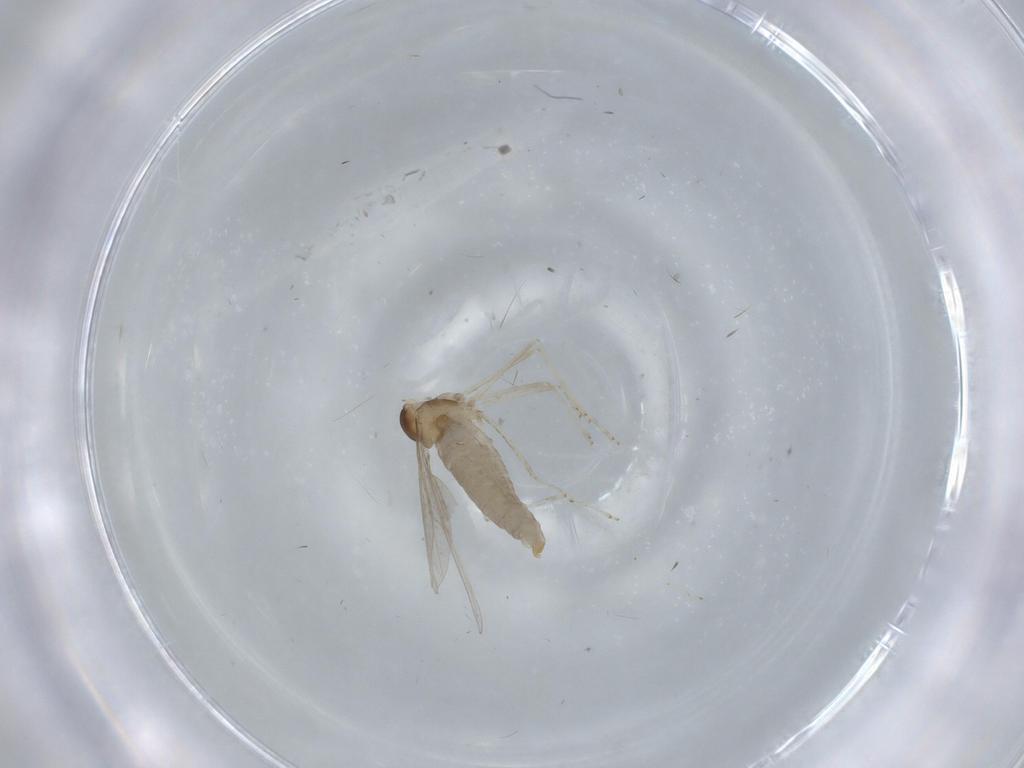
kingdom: Animalia
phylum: Arthropoda
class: Insecta
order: Diptera
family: Cecidomyiidae
